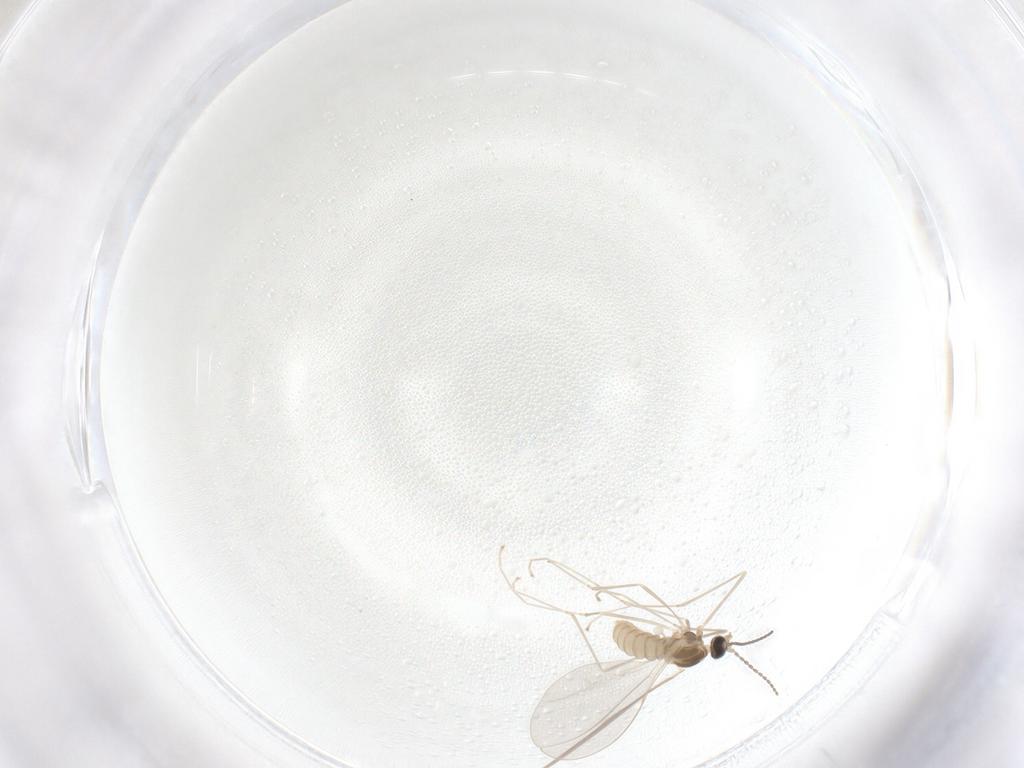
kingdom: Animalia
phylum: Arthropoda
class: Insecta
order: Diptera
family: Cecidomyiidae
